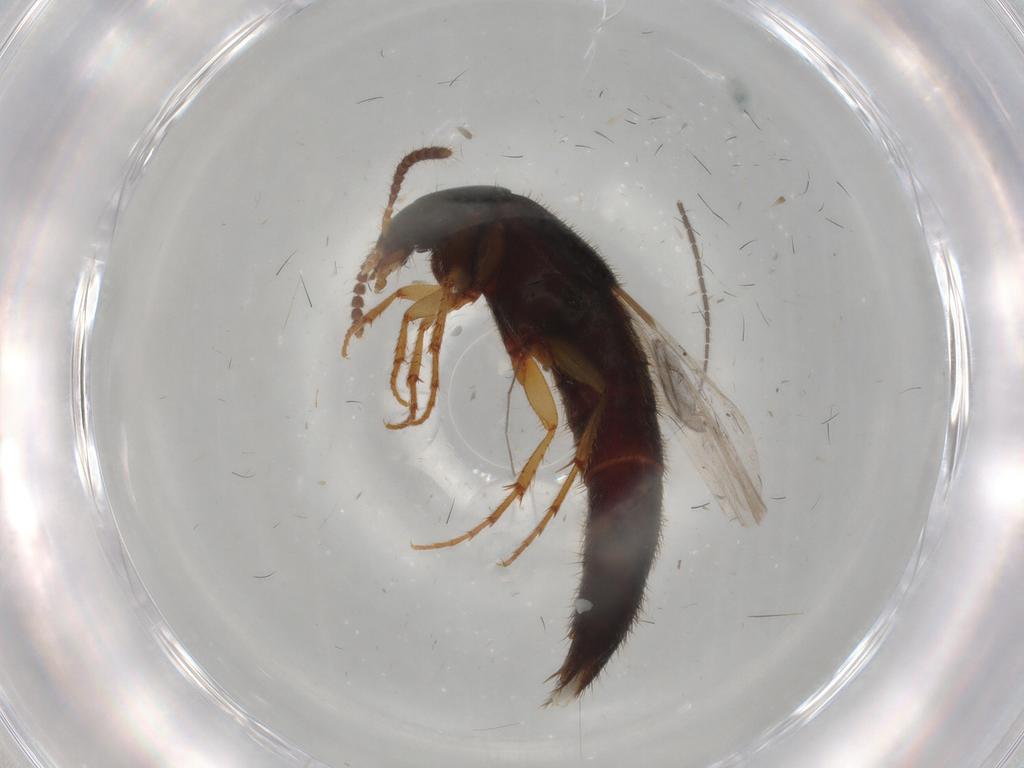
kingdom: Animalia
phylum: Arthropoda
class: Insecta
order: Coleoptera
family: Staphylinidae
